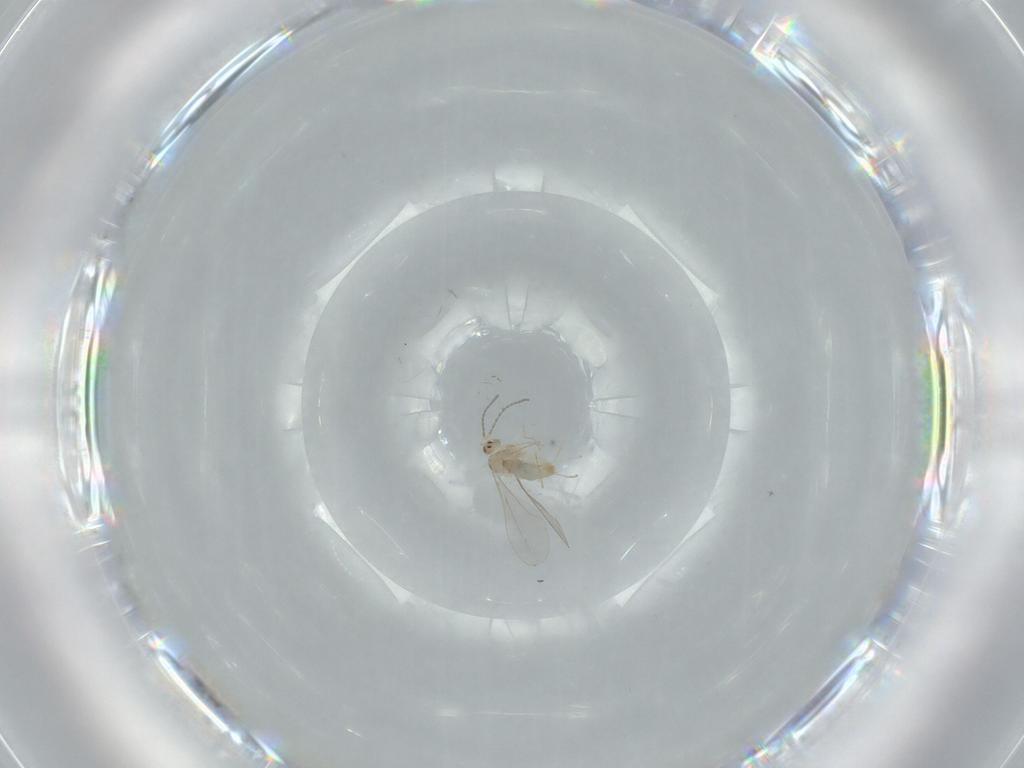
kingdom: Animalia
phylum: Arthropoda
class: Insecta
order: Diptera
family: Cecidomyiidae
